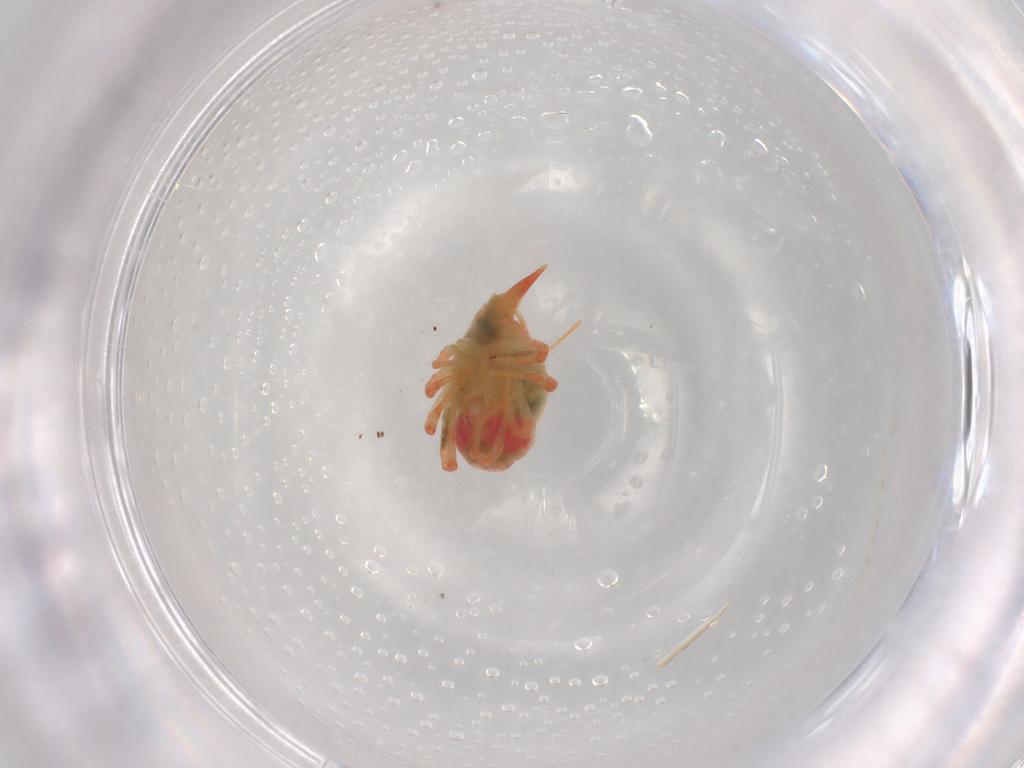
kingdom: Animalia
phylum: Arthropoda
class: Arachnida
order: Trombidiformes
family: Bdellidae
